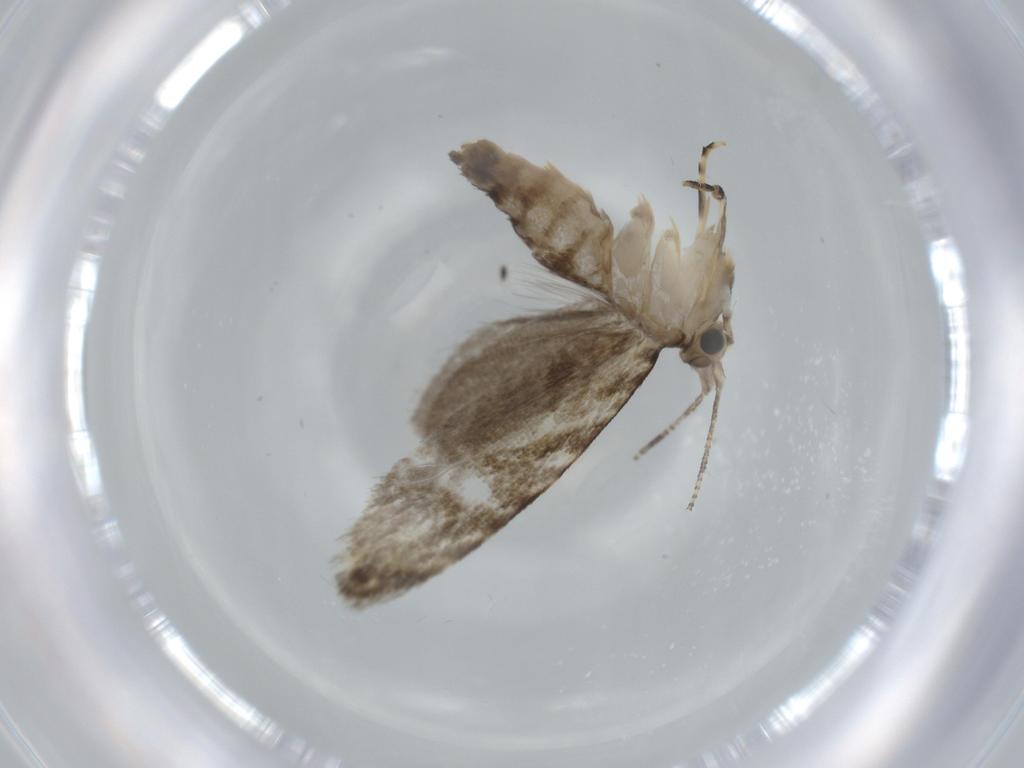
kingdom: Animalia
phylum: Arthropoda
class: Insecta
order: Lepidoptera
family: Tineidae
